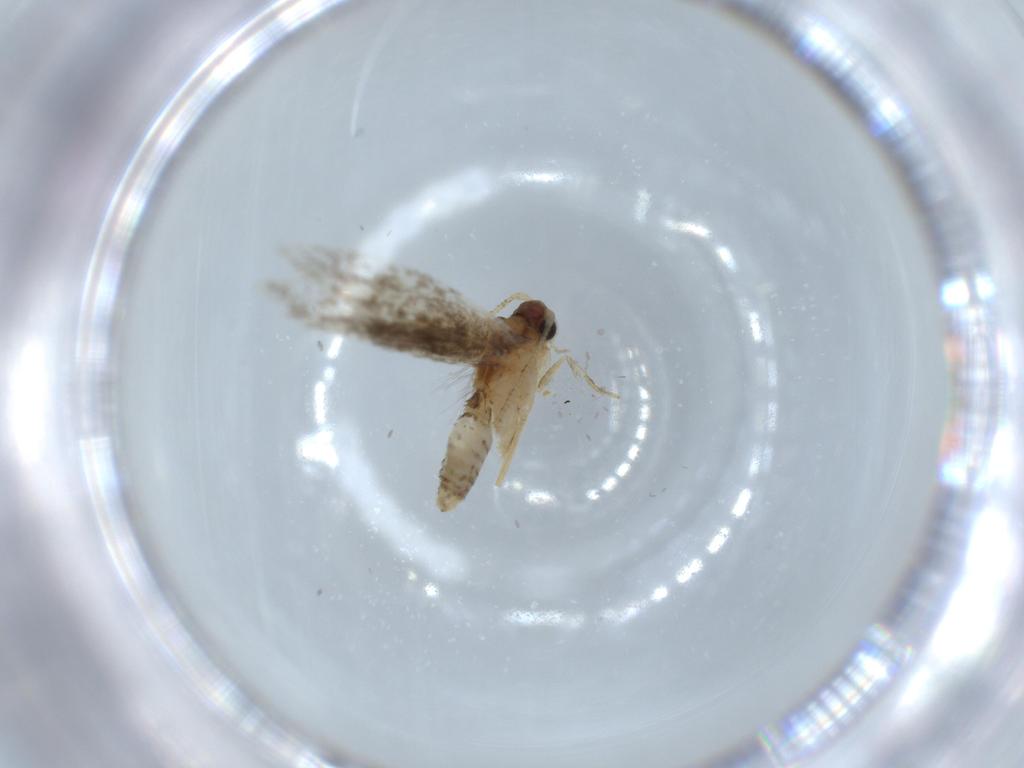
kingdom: Animalia
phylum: Arthropoda
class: Insecta
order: Lepidoptera
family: Tineidae
